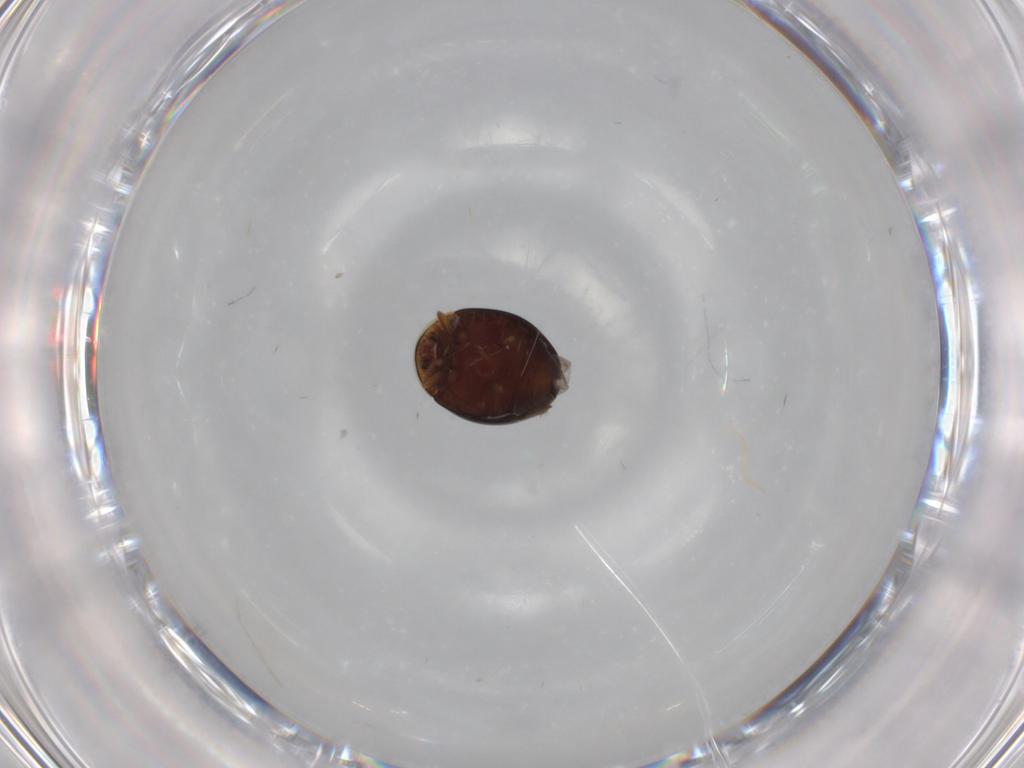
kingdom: Animalia
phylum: Arthropoda
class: Insecta
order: Coleoptera
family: Corylophidae
